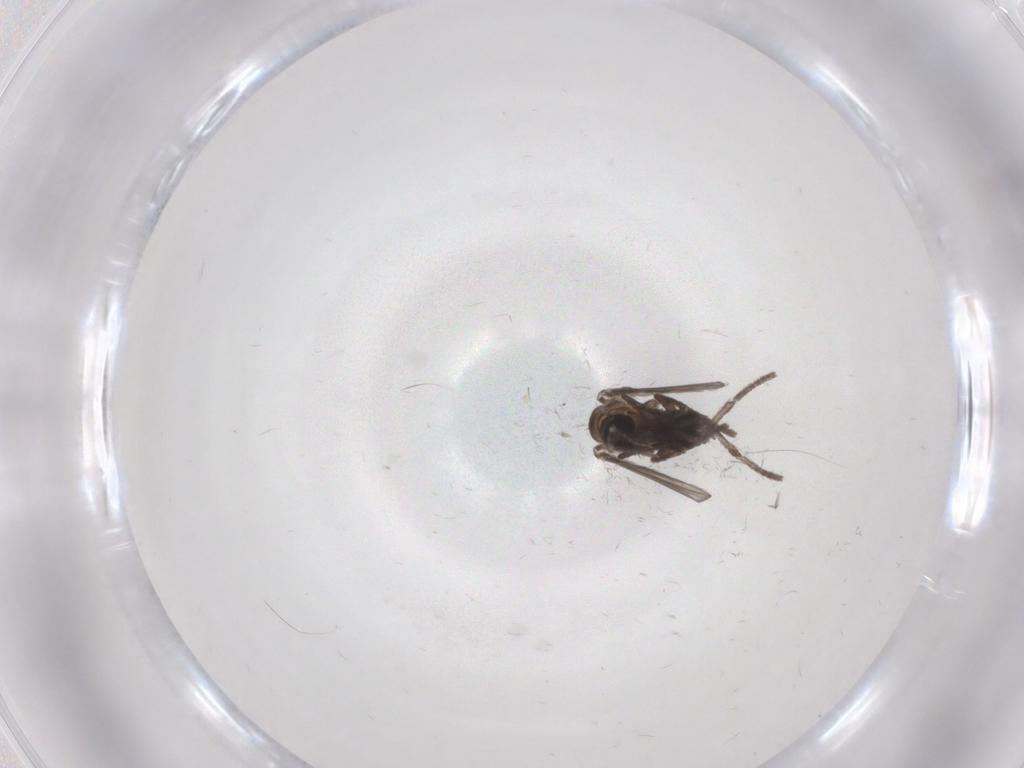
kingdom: Animalia
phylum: Arthropoda
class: Insecta
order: Diptera
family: Psychodidae
